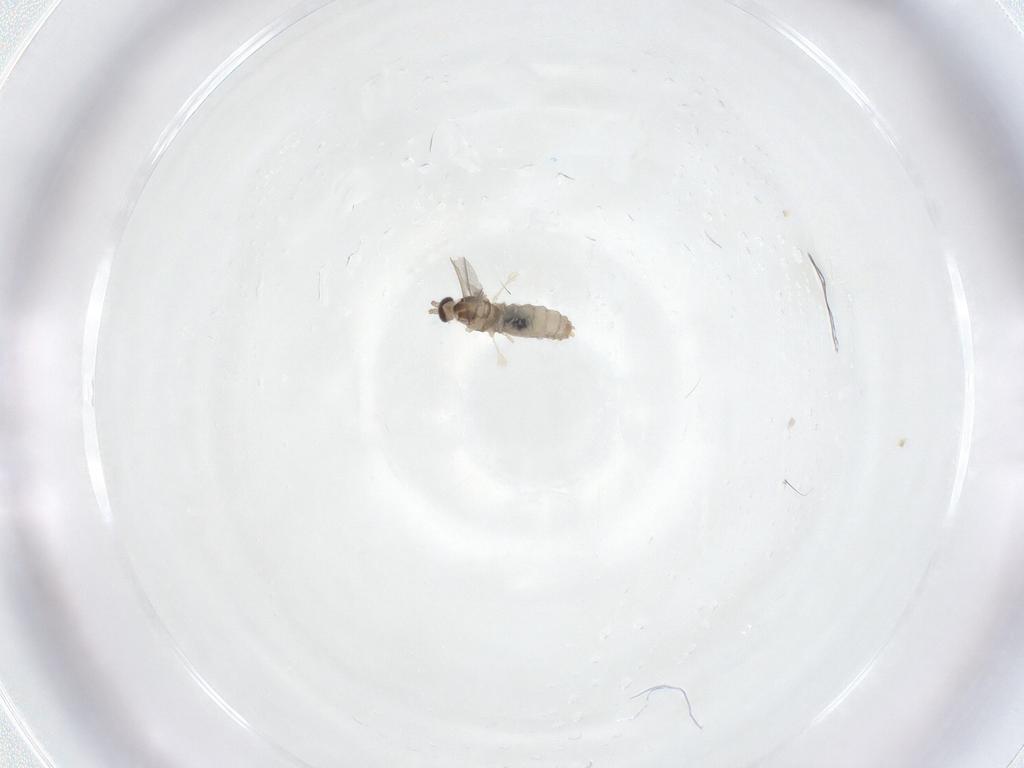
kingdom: Animalia
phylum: Arthropoda
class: Insecta
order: Diptera
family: Cecidomyiidae
